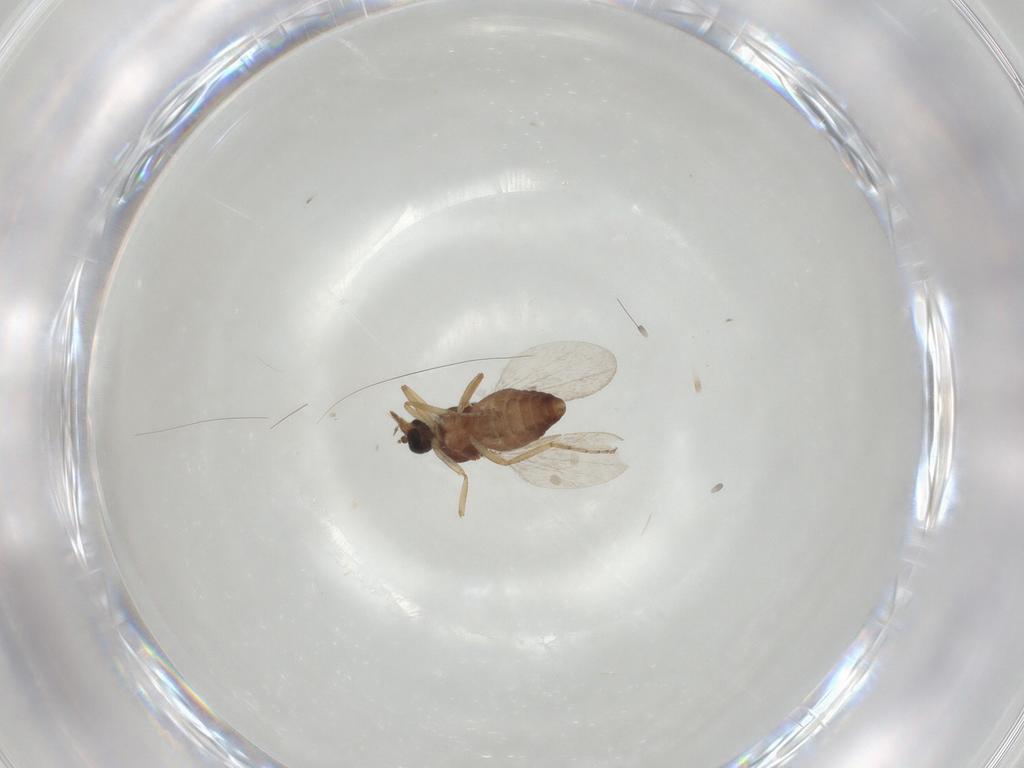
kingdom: Animalia
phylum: Arthropoda
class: Insecta
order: Diptera
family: Ceratopogonidae
